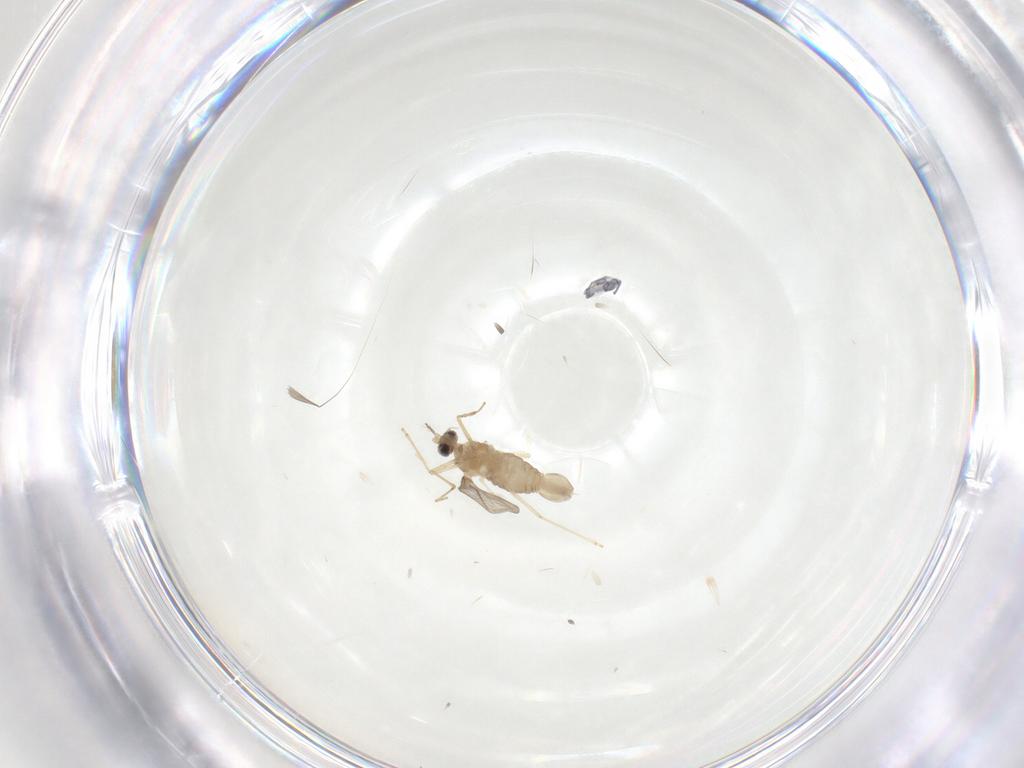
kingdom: Animalia
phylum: Arthropoda
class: Insecta
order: Diptera
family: Cecidomyiidae
